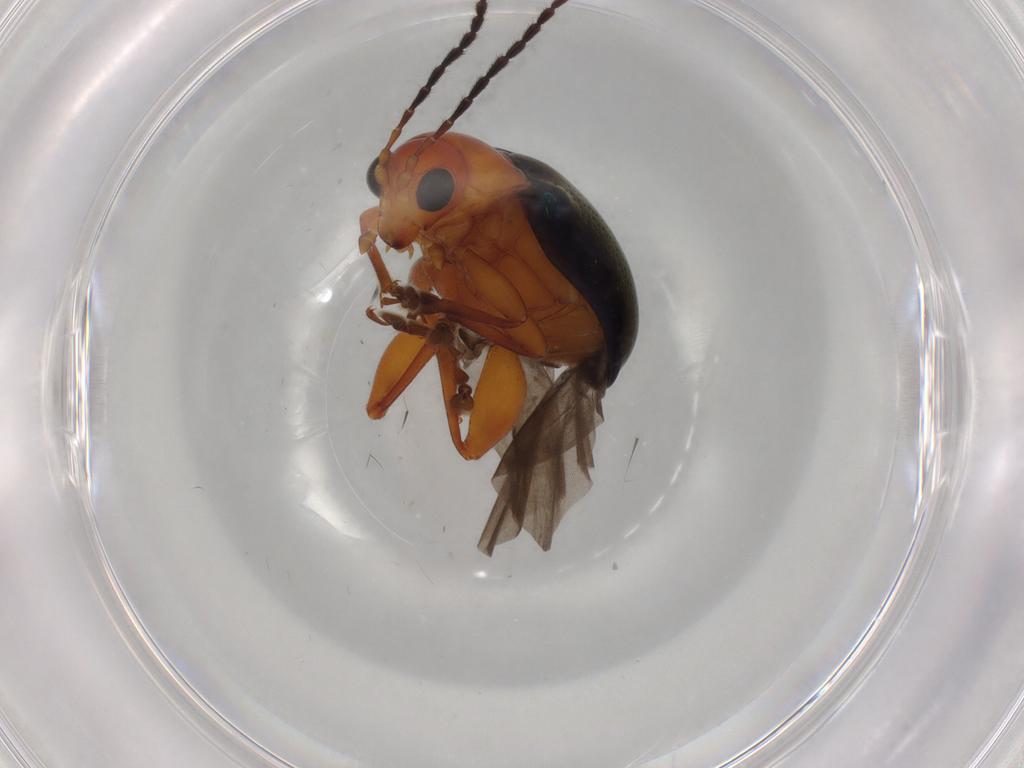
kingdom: Animalia
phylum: Arthropoda
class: Insecta
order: Coleoptera
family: Chrysomelidae
